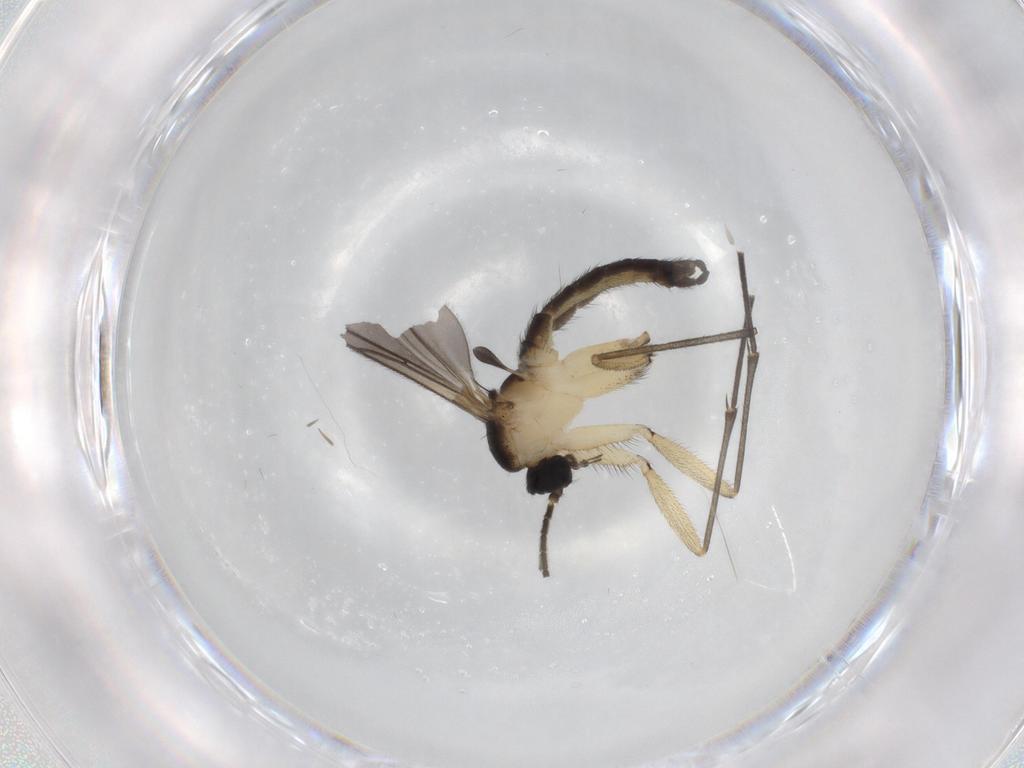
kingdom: Animalia
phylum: Arthropoda
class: Insecta
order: Diptera
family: Sciaridae
